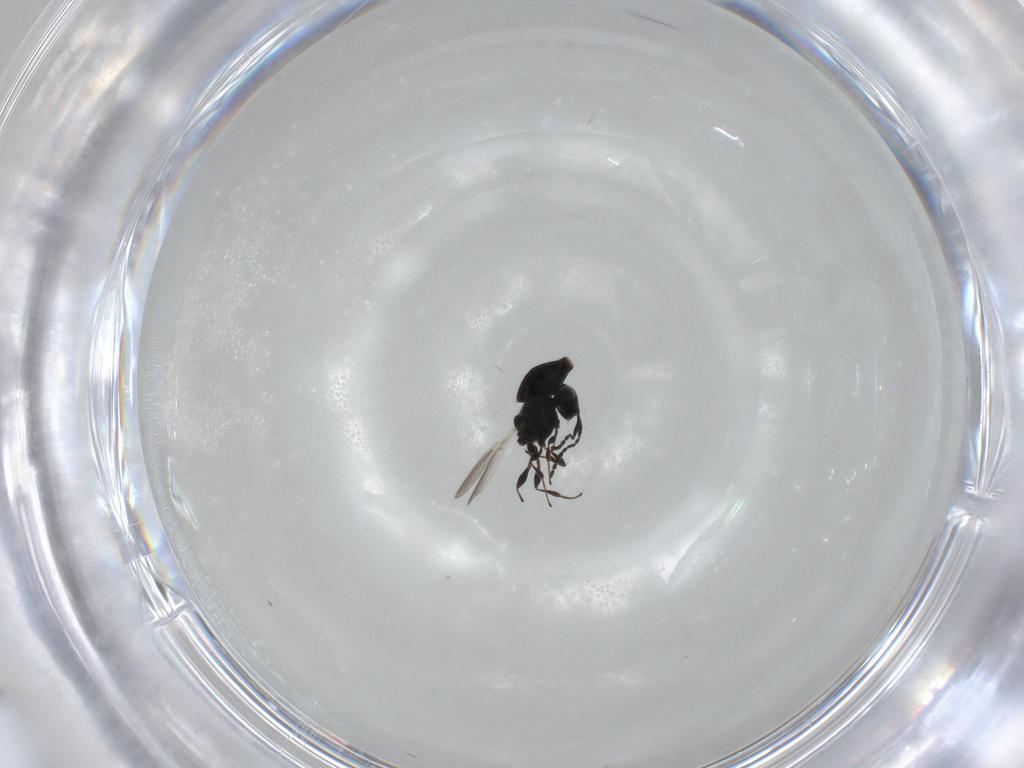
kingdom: Animalia
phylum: Arthropoda
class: Insecta
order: Hymenoptera
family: Platygastridae
